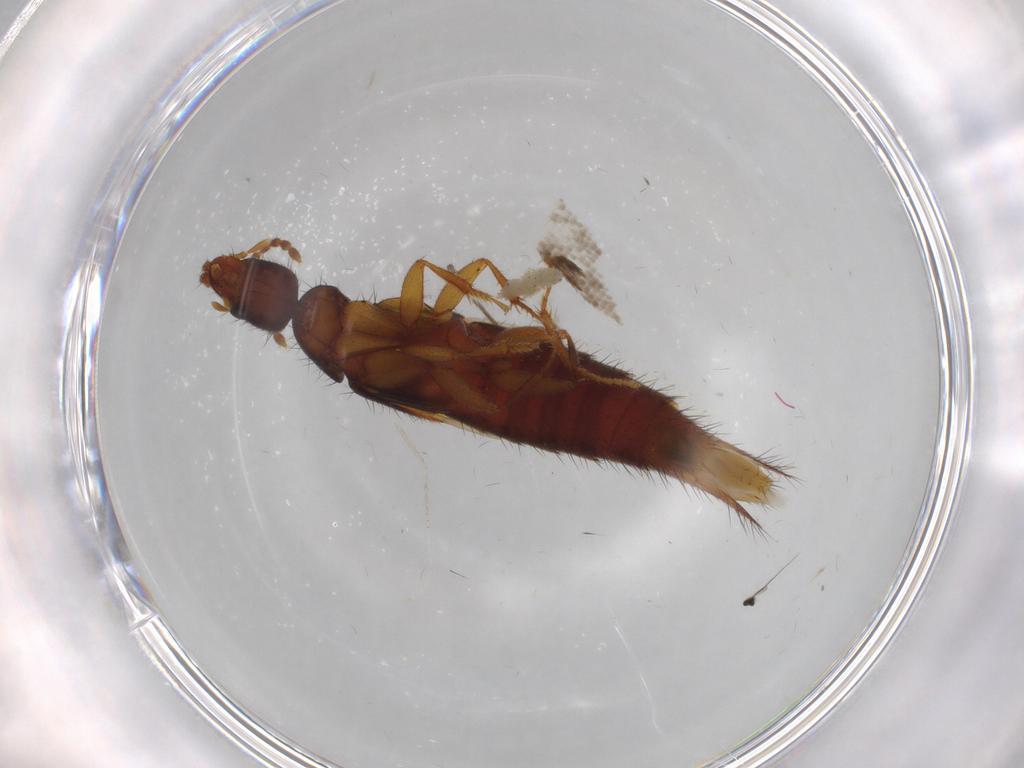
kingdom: Animalia
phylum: Arthropoda
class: Insecta
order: Coleoptera
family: Staphylinidae
